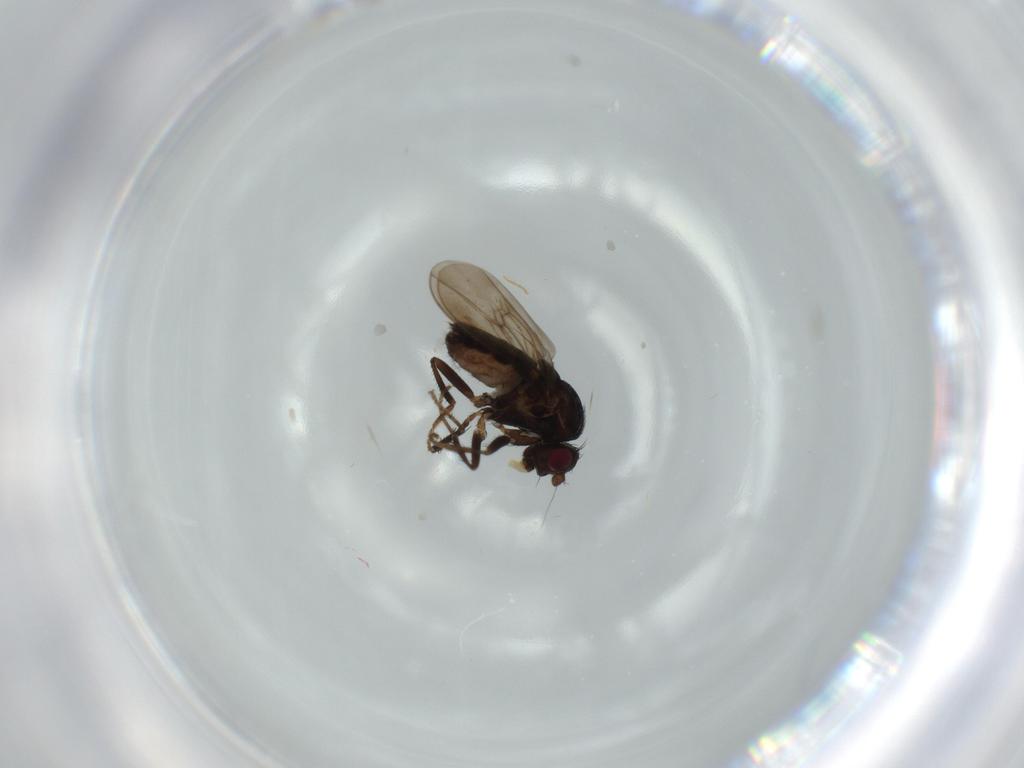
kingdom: Animalia
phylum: Arthropoda
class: Insecta
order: Diptera
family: Sphaeroceridae
